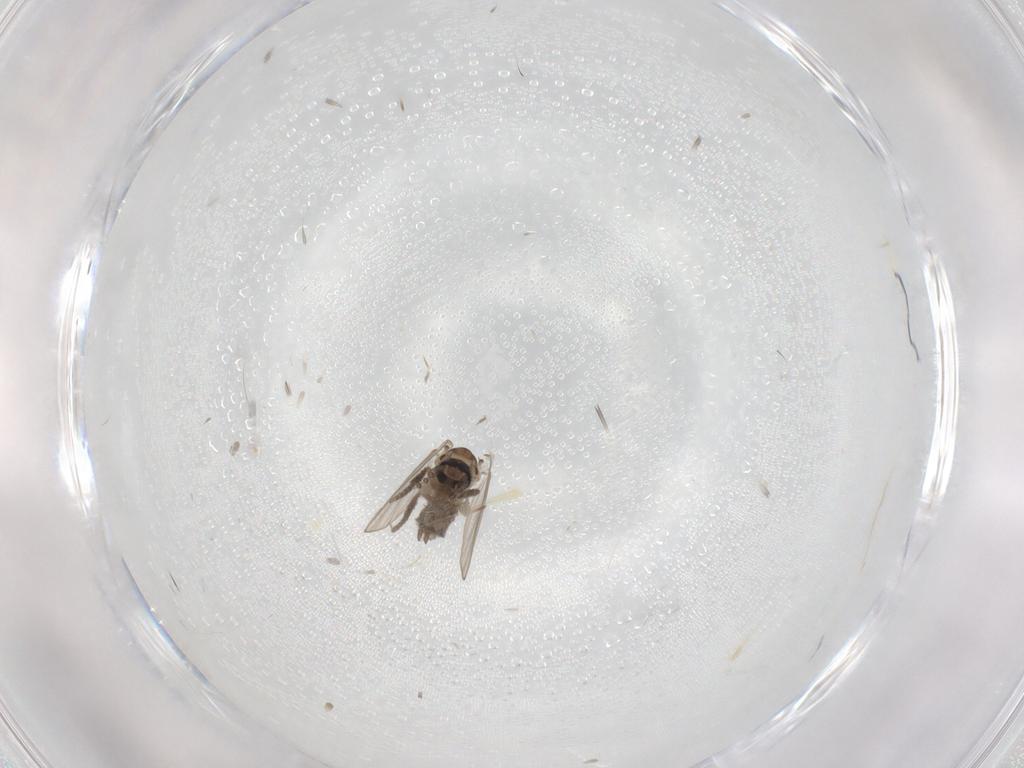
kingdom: Animalia
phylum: Arthropoda
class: Insecta
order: Diptera
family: Psychodidae
